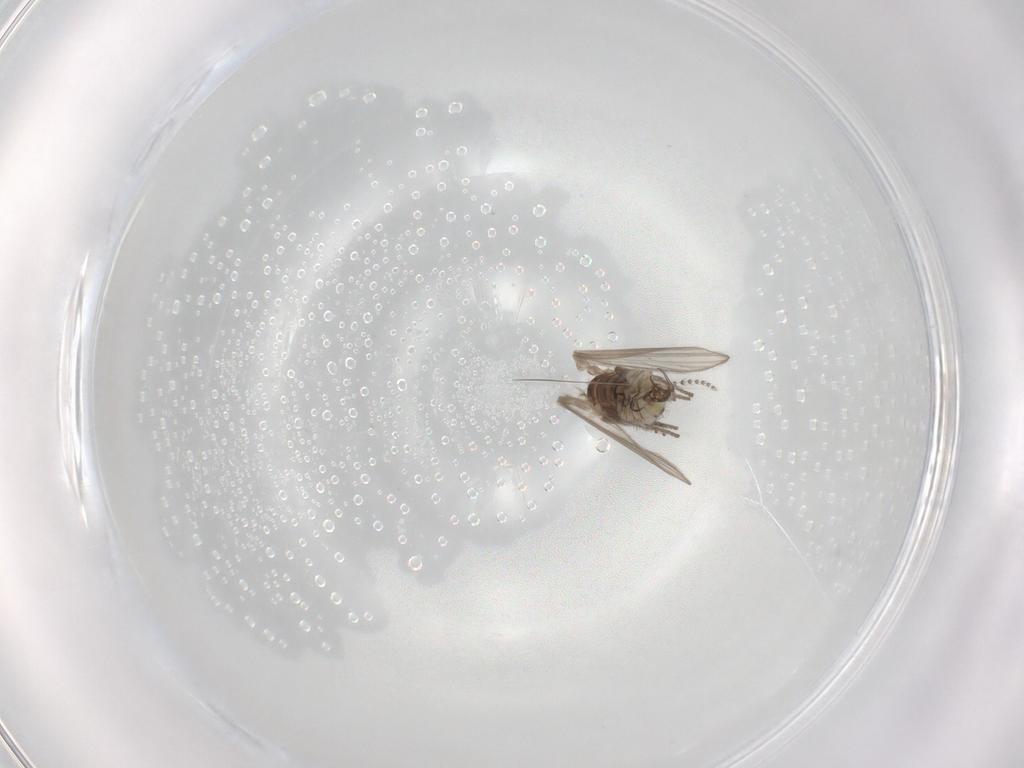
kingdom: Animalia
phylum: Arthropoda
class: Insecta
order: Diptera
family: Psychodidae
